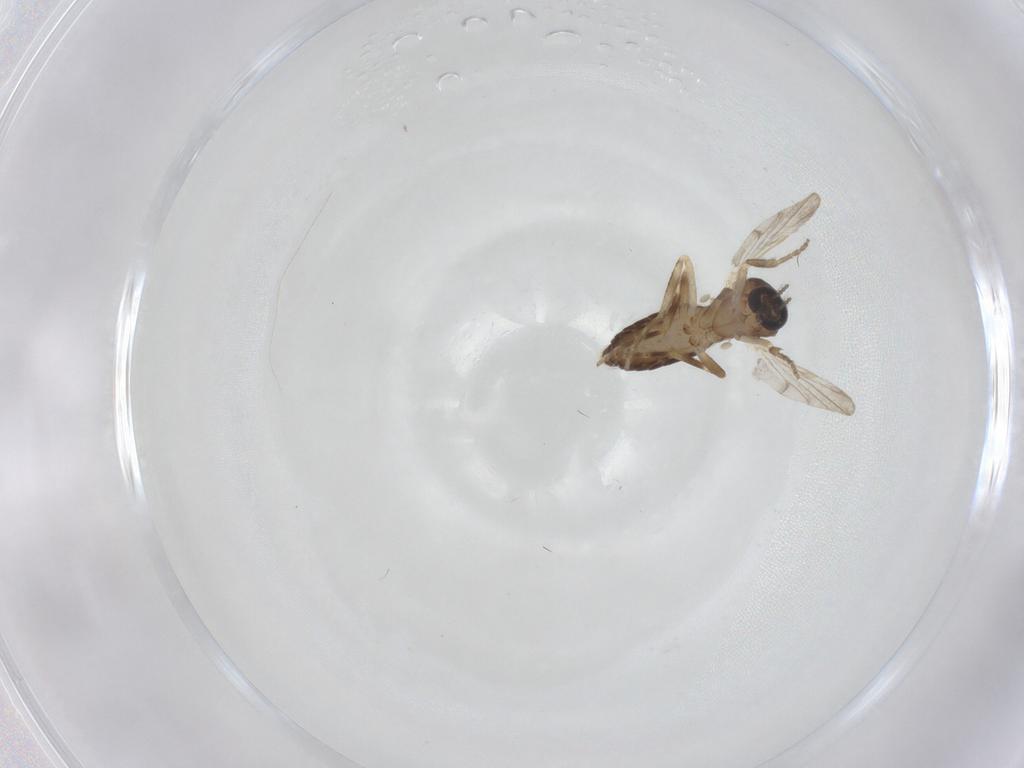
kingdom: Animalia
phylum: Arthropoda
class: Insecta
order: Diptera
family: Ceratopogonidae
